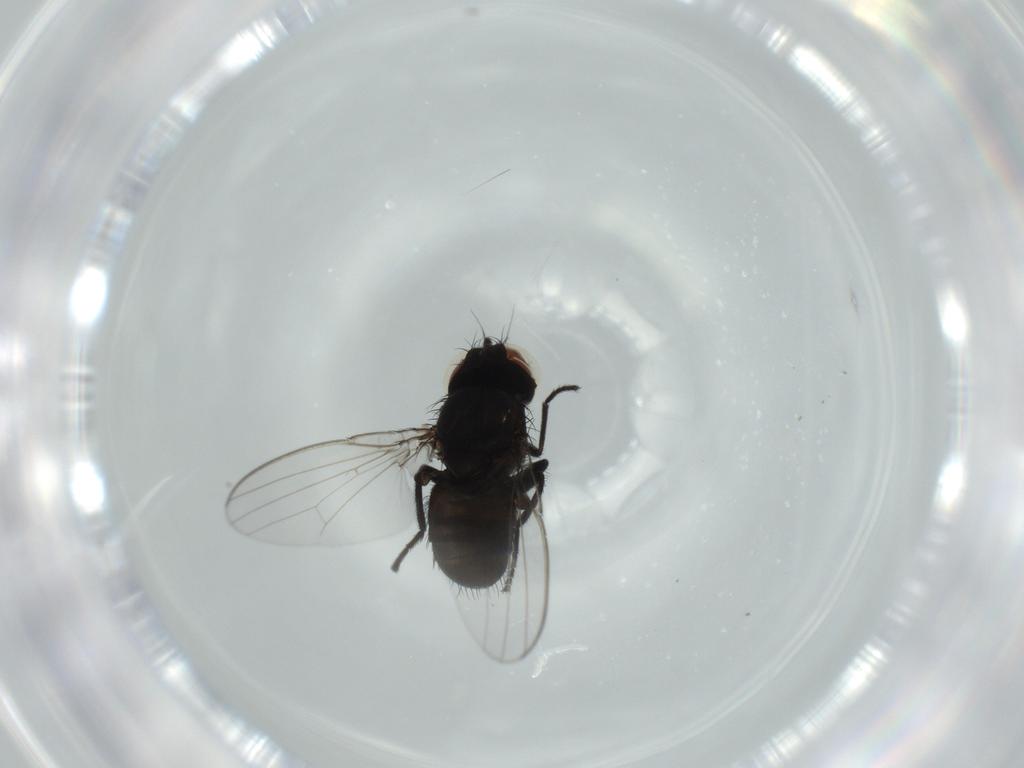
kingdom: Animalia
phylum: Arthropoda
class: Insecta
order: Diptera
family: Milichiidae
